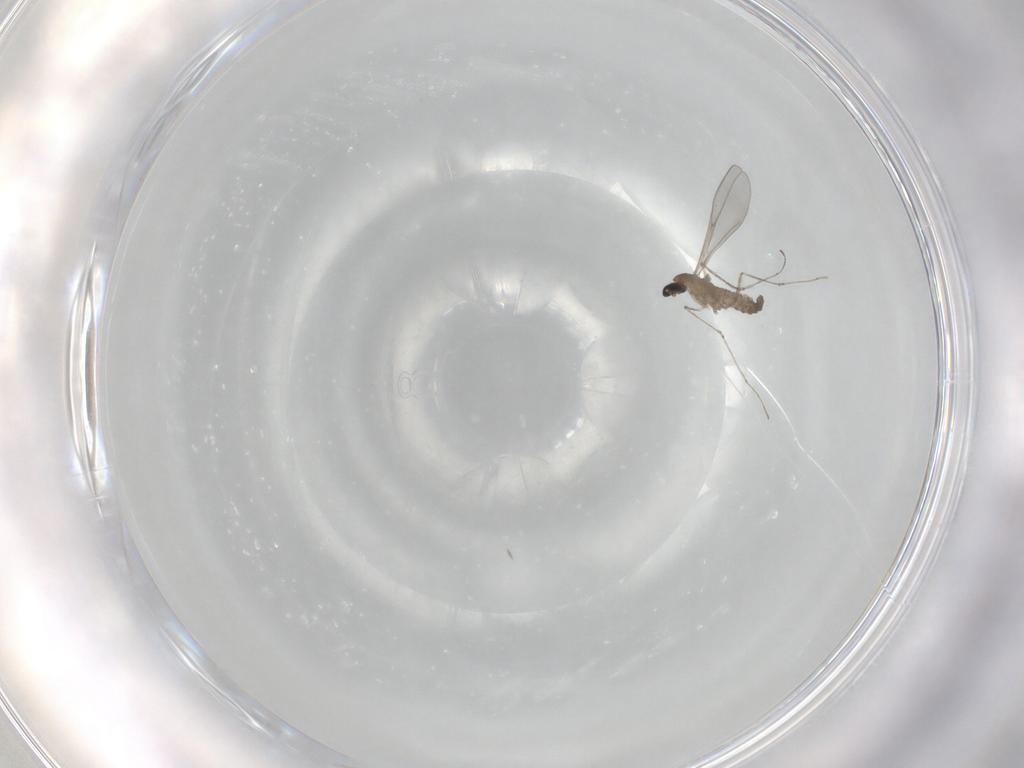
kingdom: Animalia
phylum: Arthropoda
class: Insecta
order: Diptera
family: Cecidomyiidae
